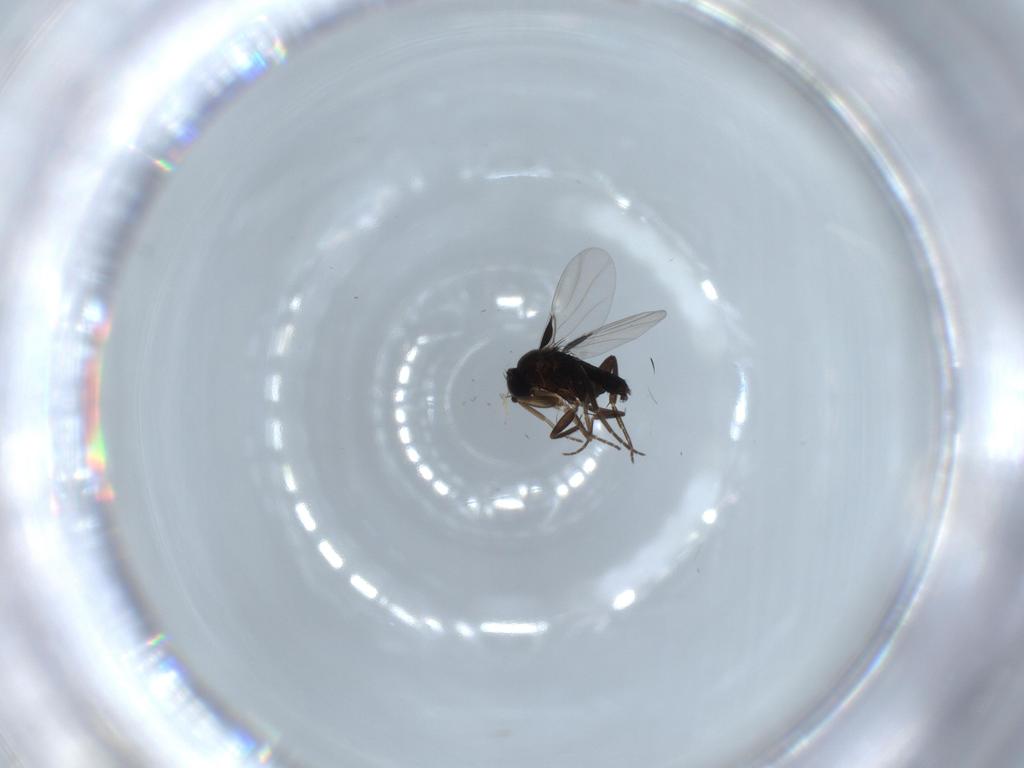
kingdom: Animalia
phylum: Arthropoda
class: Insecta
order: Diptera
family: Phoridae
